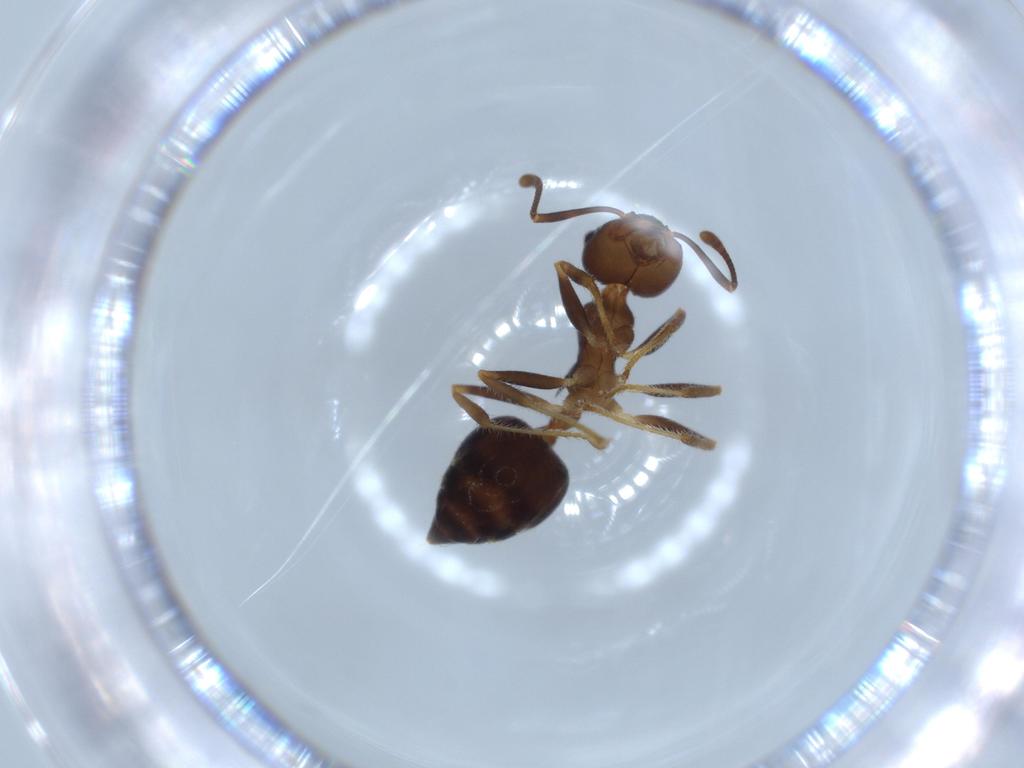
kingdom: Animalia
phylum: Arthropoda
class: Insecta
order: Hymenoptera
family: Formicidae
